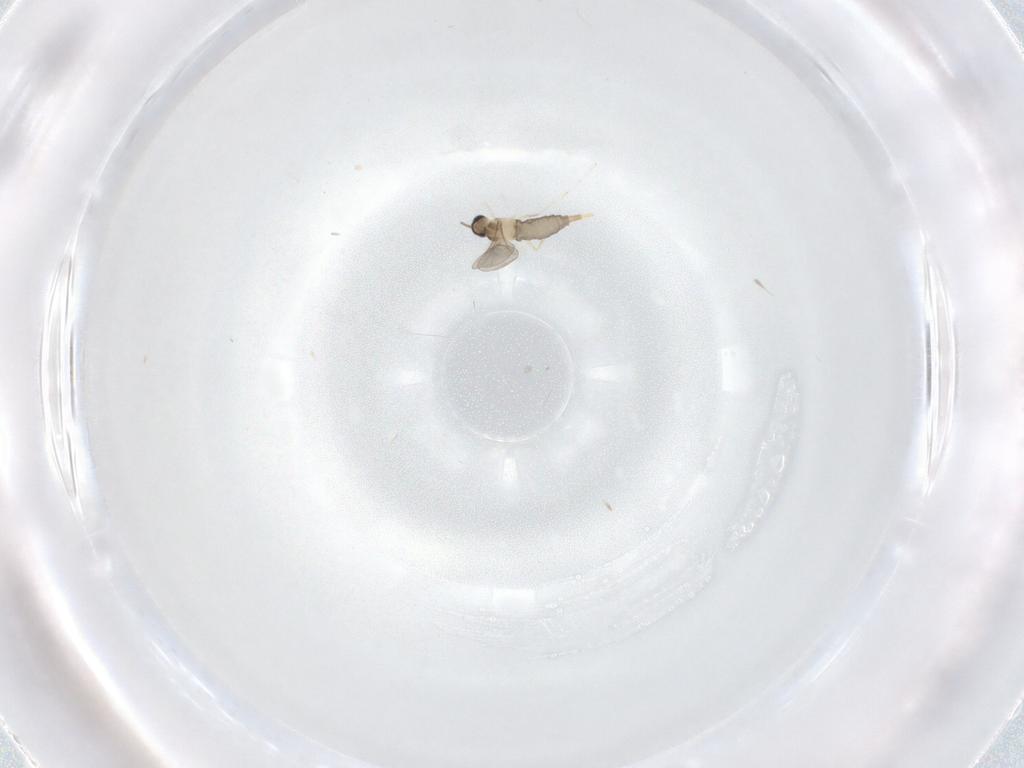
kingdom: Animalia
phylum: Arthropoda
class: Insecta
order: Diptera
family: Cecidomyiidae
